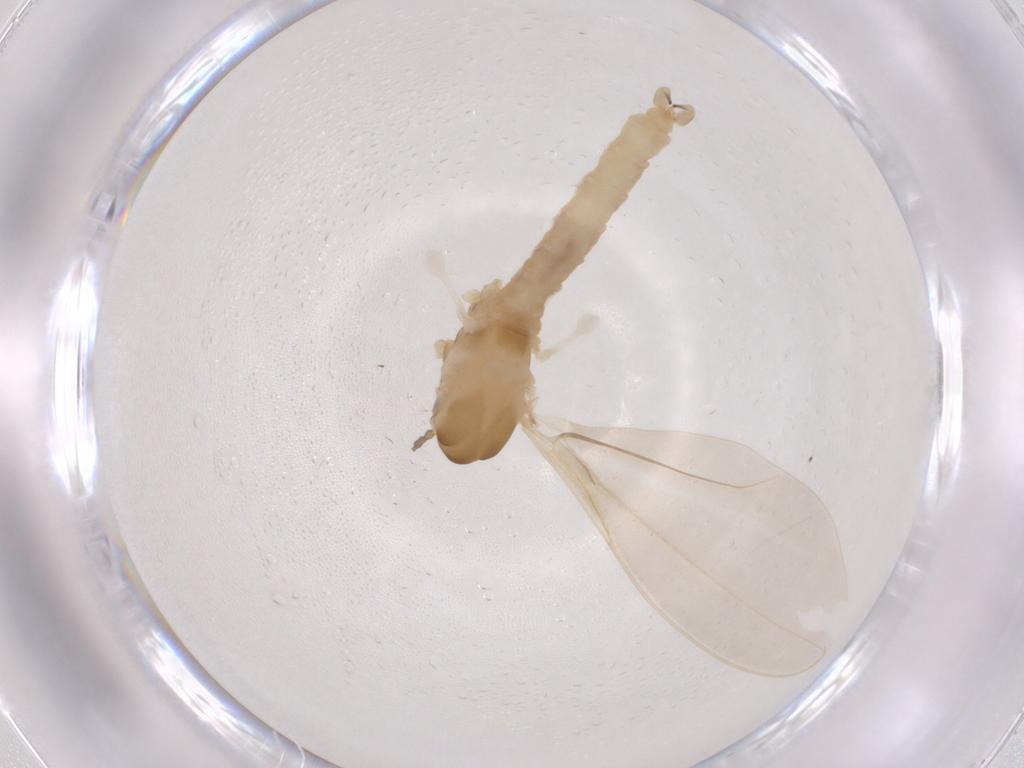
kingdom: Animalia
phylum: Arthropoda
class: Insecta
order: Diptera
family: Cecidomyiidae
